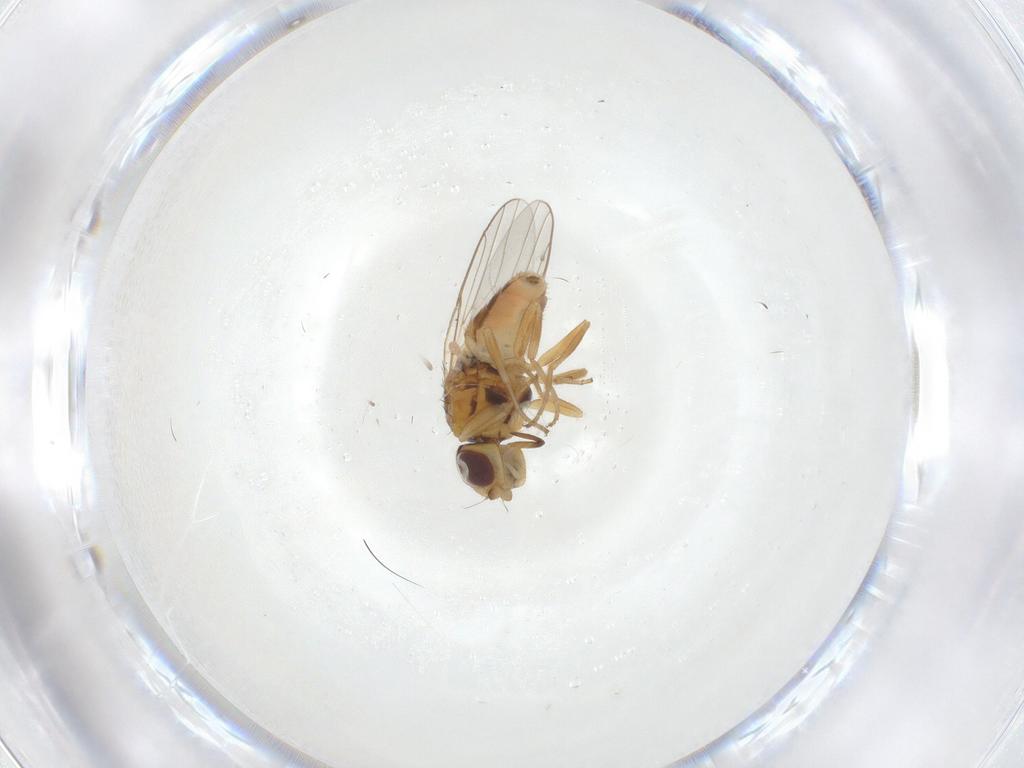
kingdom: Animalia
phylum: Arthropoda
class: Insecta
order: Diptera
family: Chloropidae
